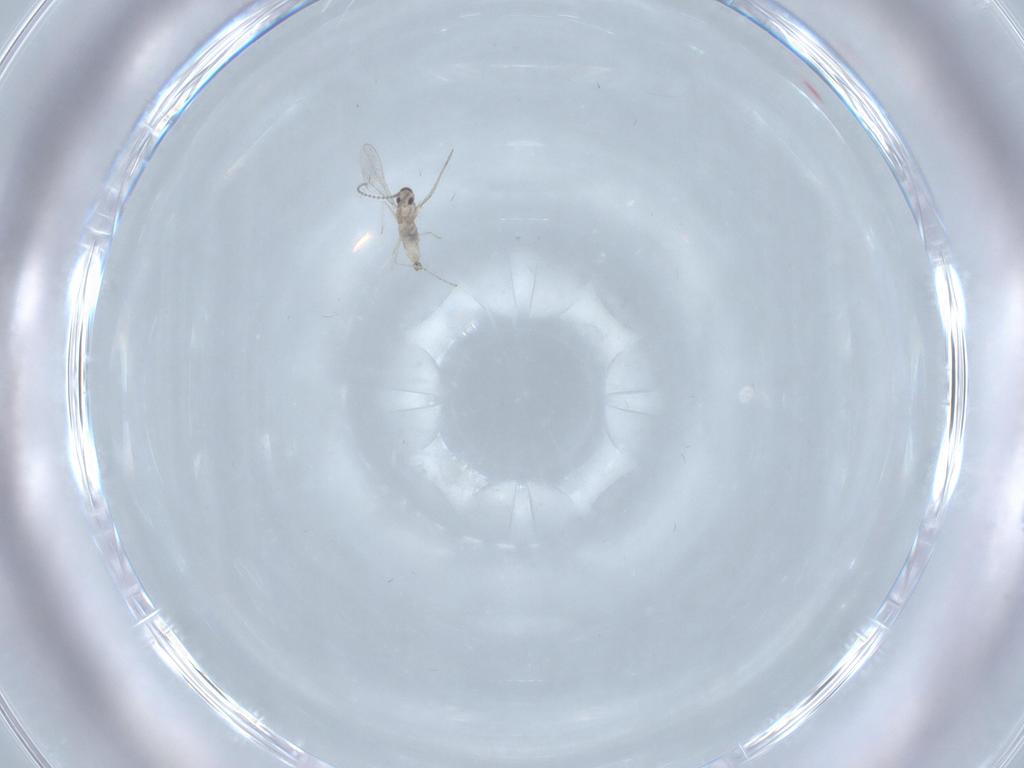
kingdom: Animalia
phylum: Arthropoda
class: Insecta
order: Diptera
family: Cecidomyiidae
